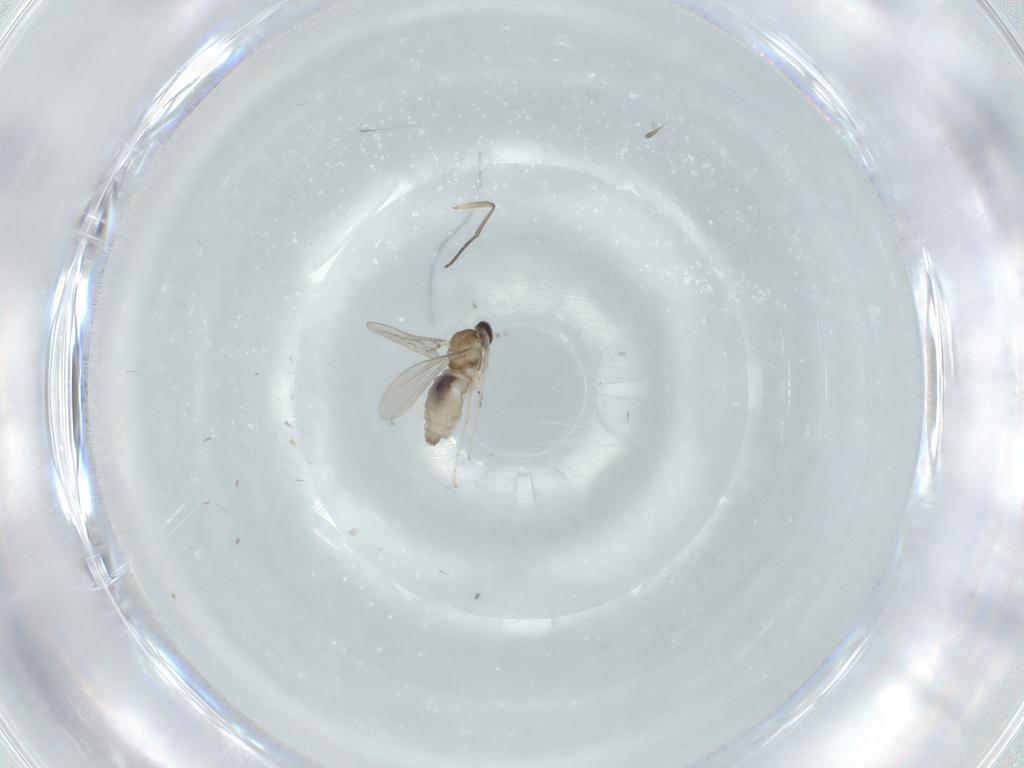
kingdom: Animalia
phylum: Arthropoda
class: Insecta
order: Diptera
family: Cecidomyiidae
